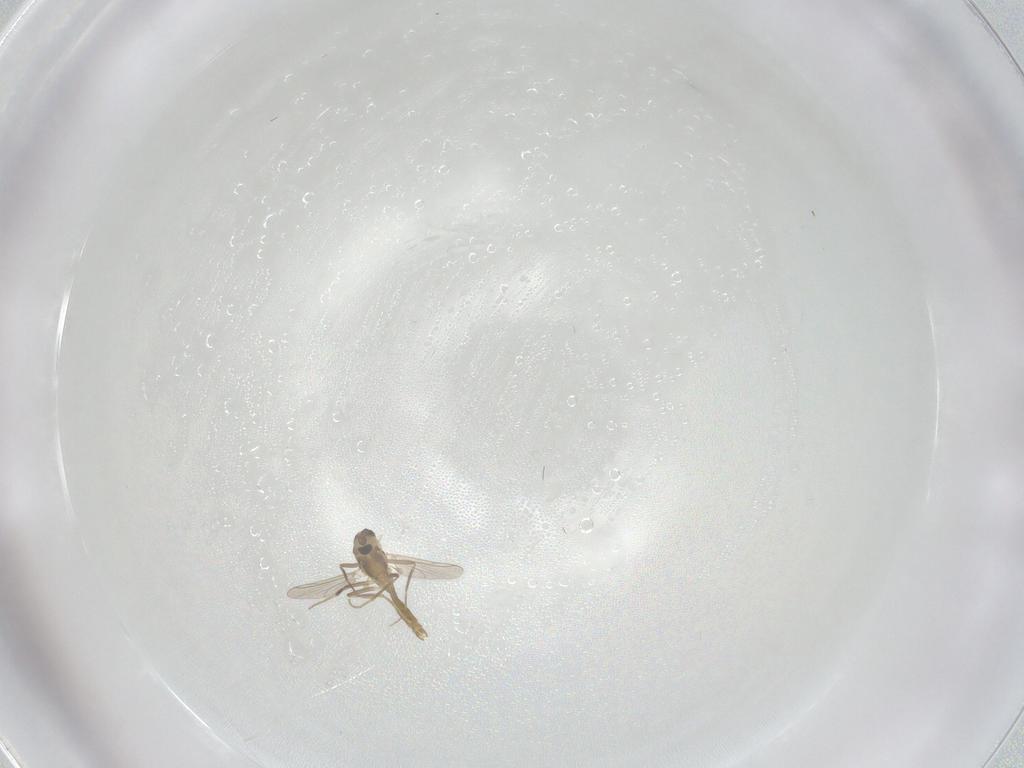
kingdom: Animalia
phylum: Arthropoda
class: Insecta
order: Diptera
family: Chironomidae
